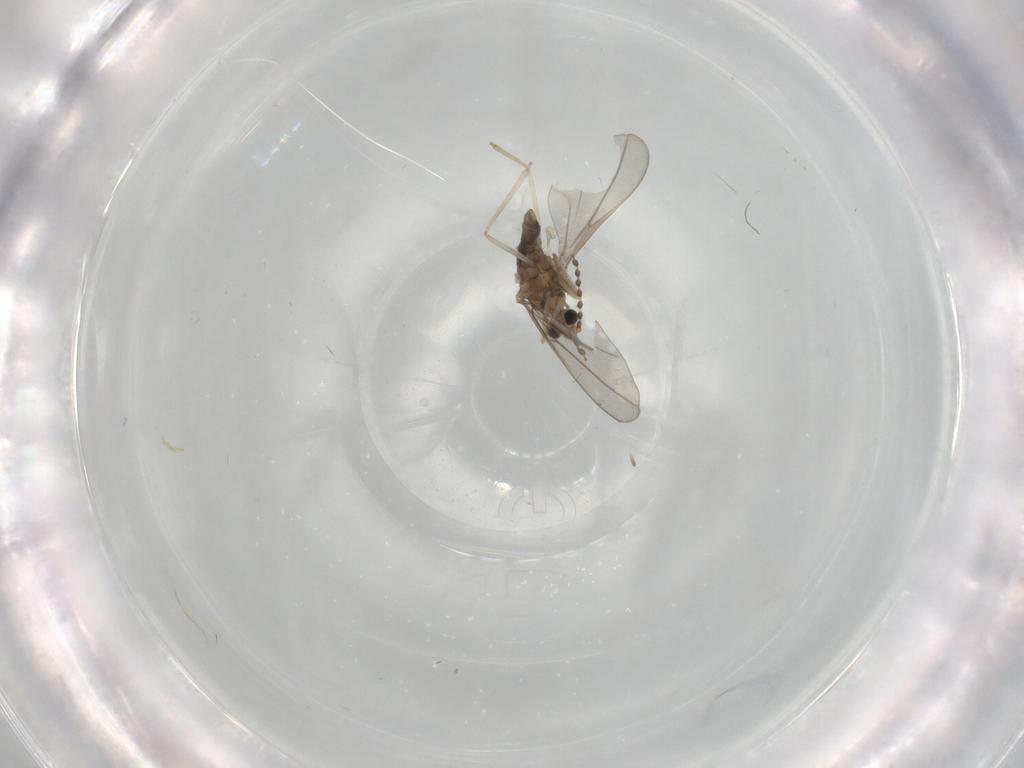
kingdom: Animalia
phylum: Arthropoda
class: Insecta
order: Diptera
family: Cecidomyiidae
